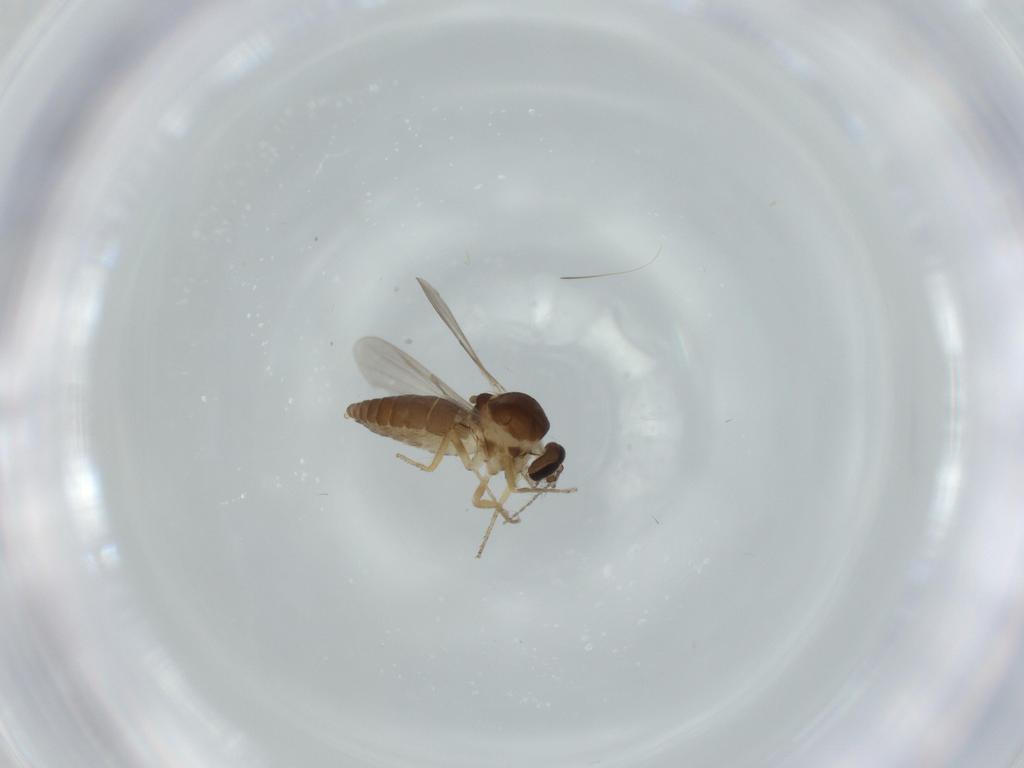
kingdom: Animalia
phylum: Arthropoda
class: Insecta
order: Diptera
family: Ceratopogonidae
